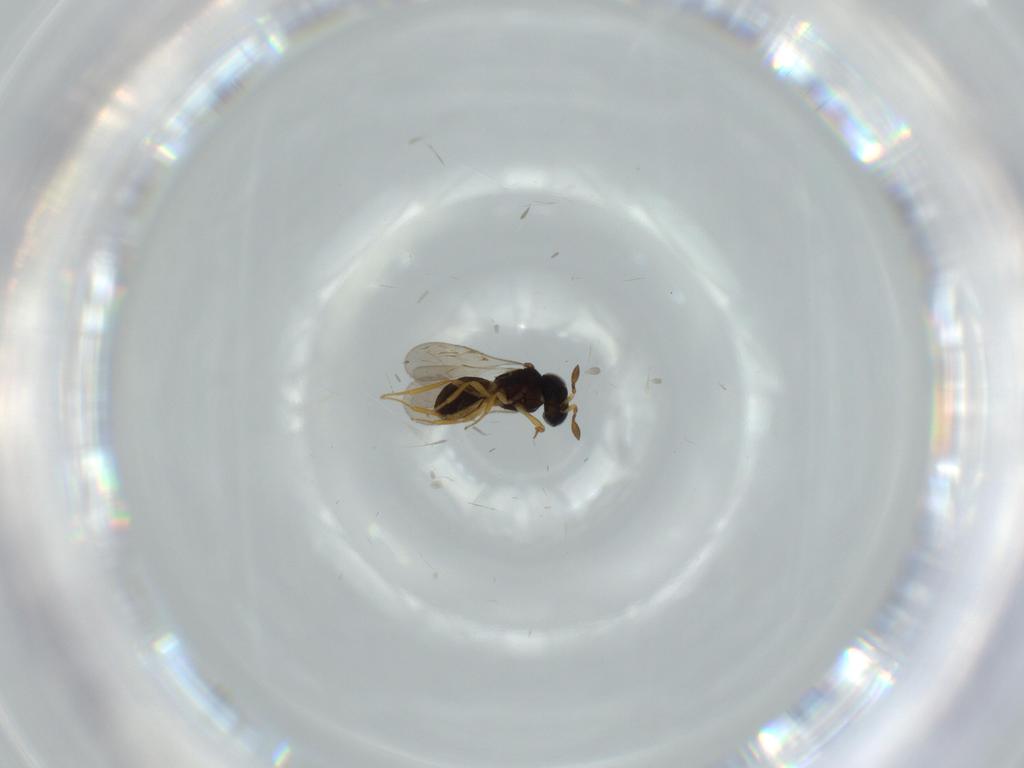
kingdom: Animalia
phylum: Arthropoda
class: Insecta
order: Hymenoptera
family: Scelionidae
